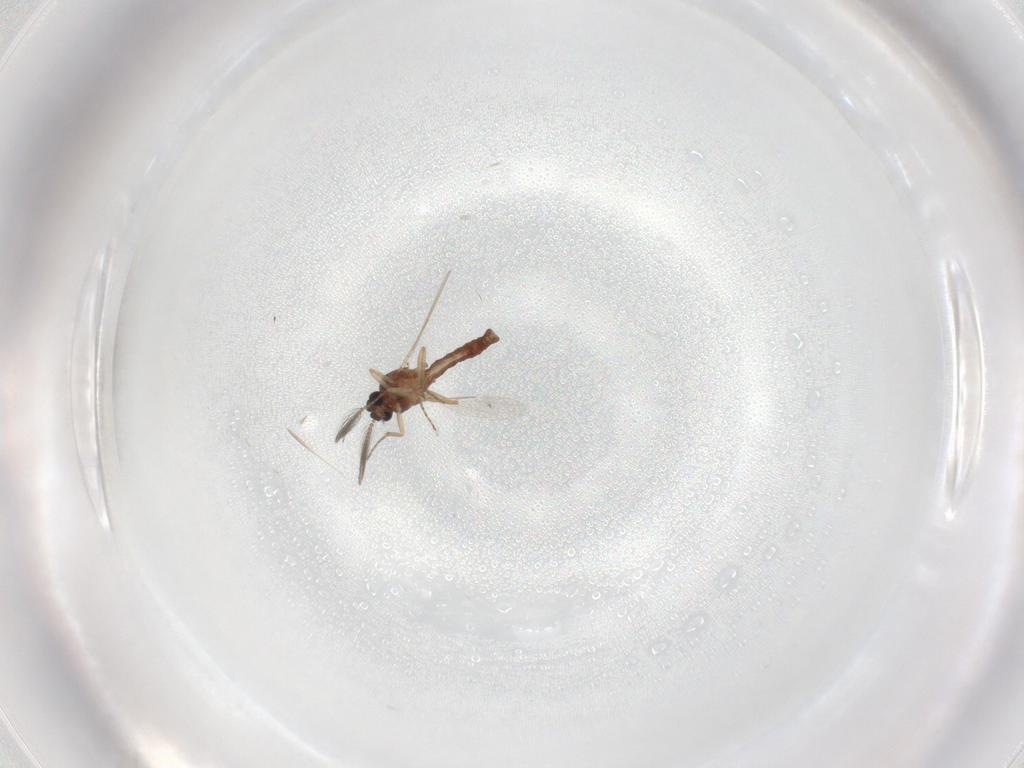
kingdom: Animalia
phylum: Arthropoda
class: Insecta
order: Diptera
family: Ceratopogonidae
